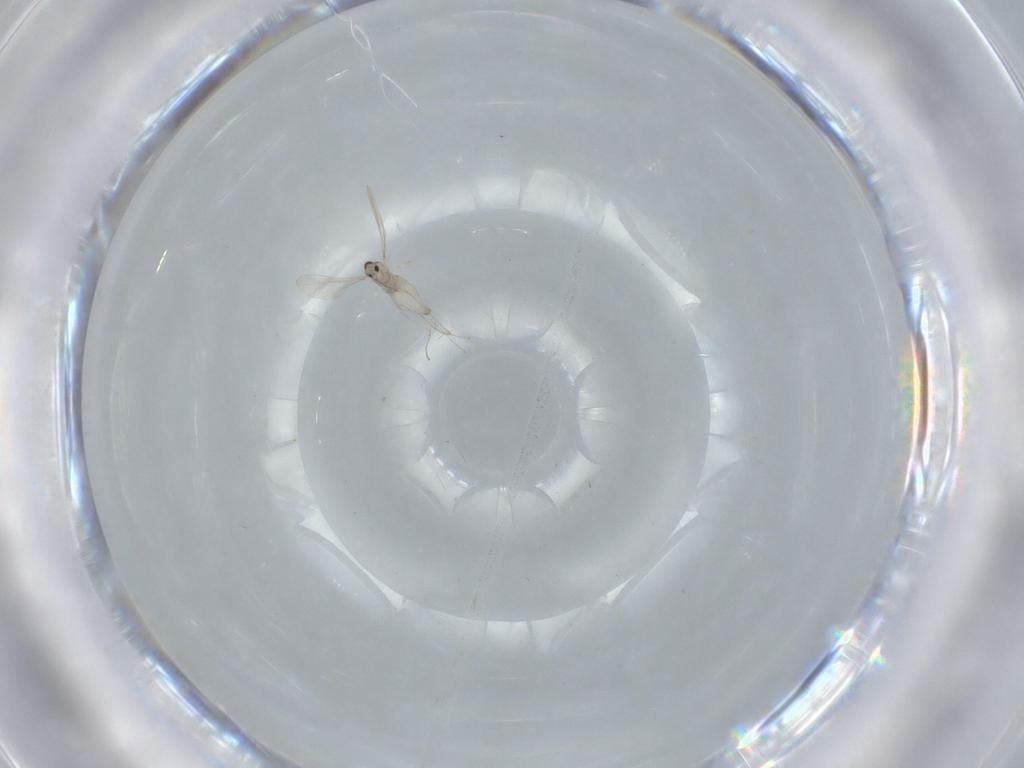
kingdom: Animalia
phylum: Arthropoda
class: Insecta
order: Diptera
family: Cecidomyiidae
